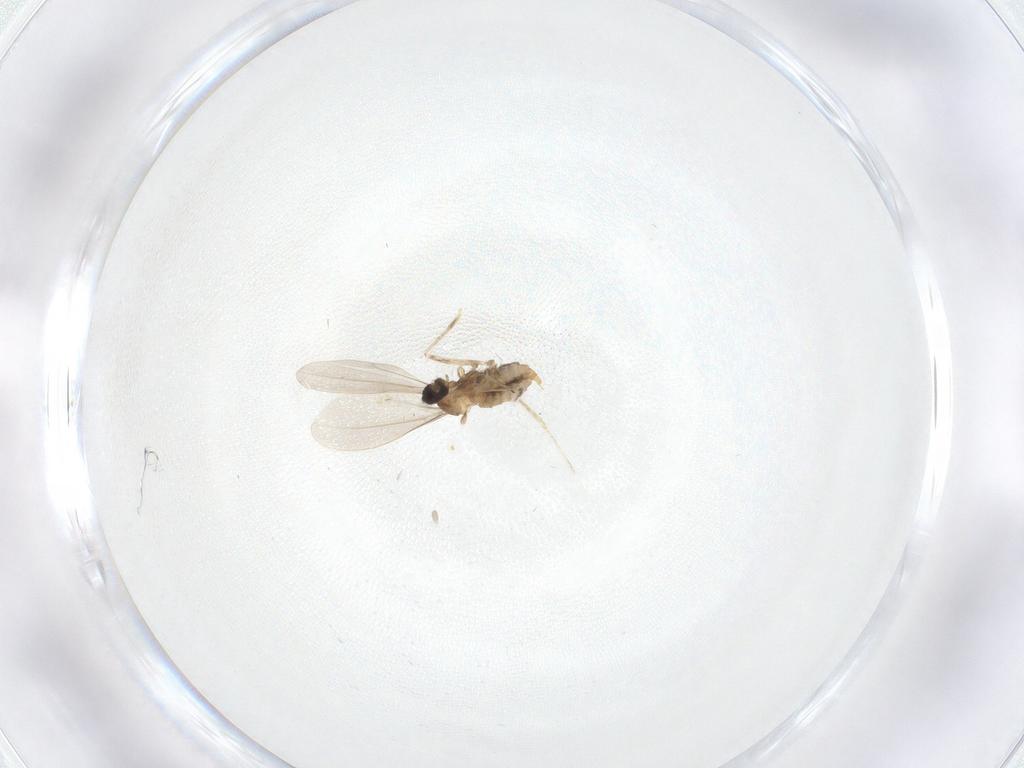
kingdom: Animalia
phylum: Arthropoda
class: Insecta
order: Diptera
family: Cecidomyiidae
